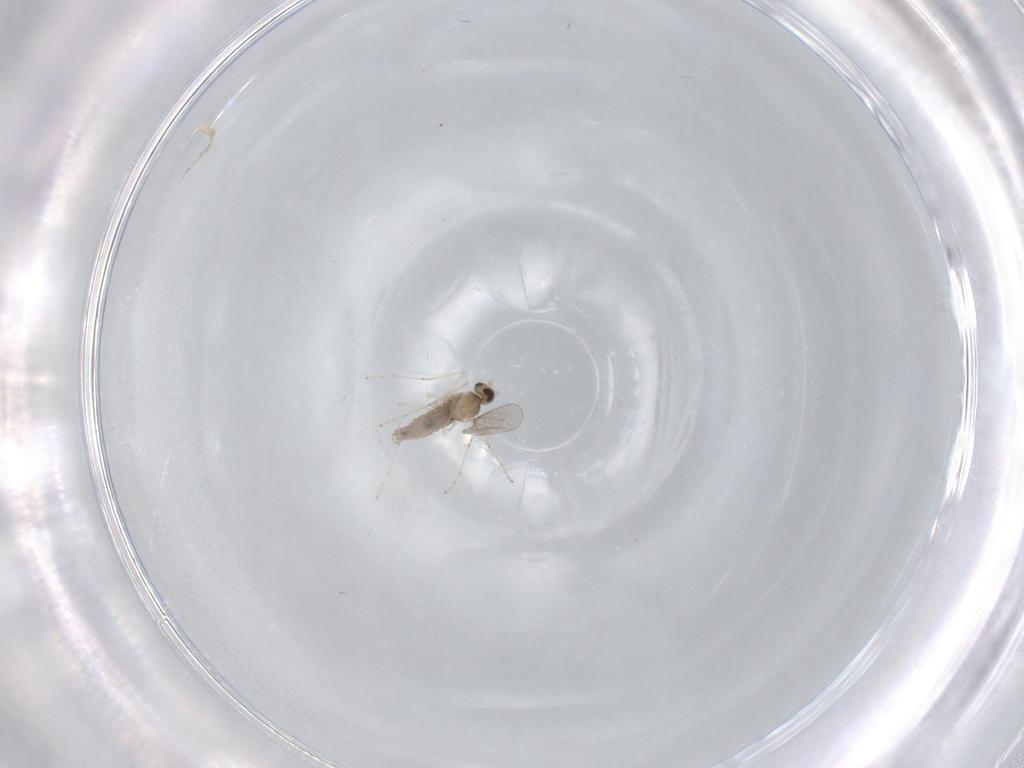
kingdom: Animalia
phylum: Arthropoda
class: Insecta
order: Diptera
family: Cecidomyiidae
